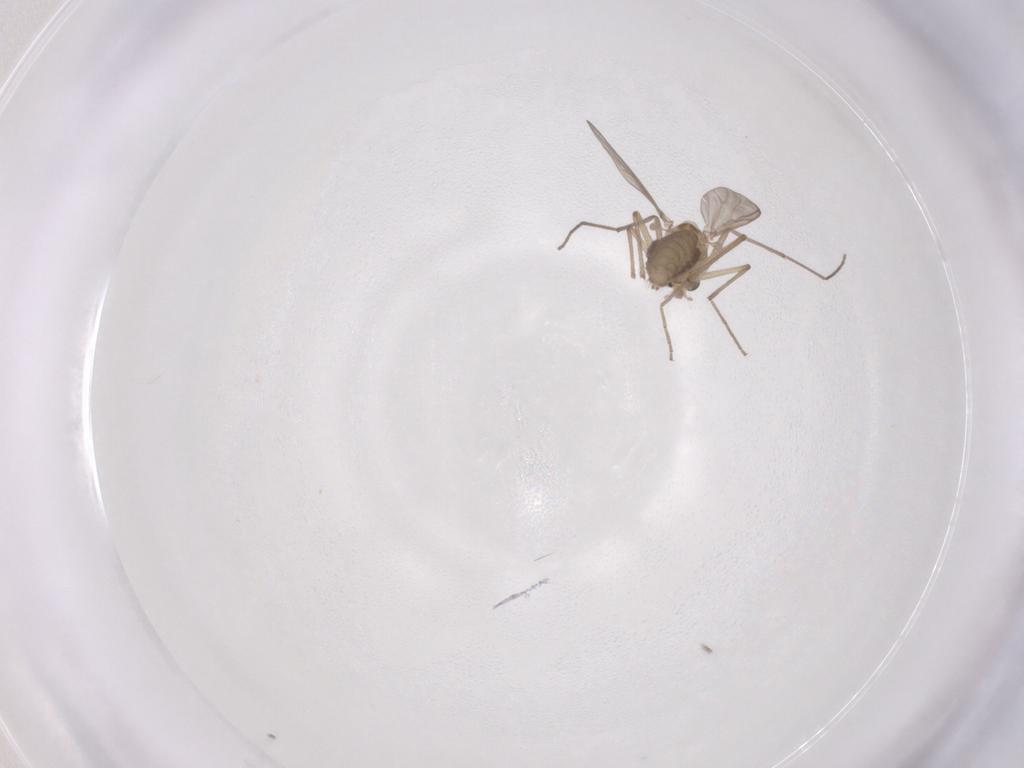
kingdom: Animalia
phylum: Arthropoda
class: Insecta
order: Diptera
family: Chironomidae
